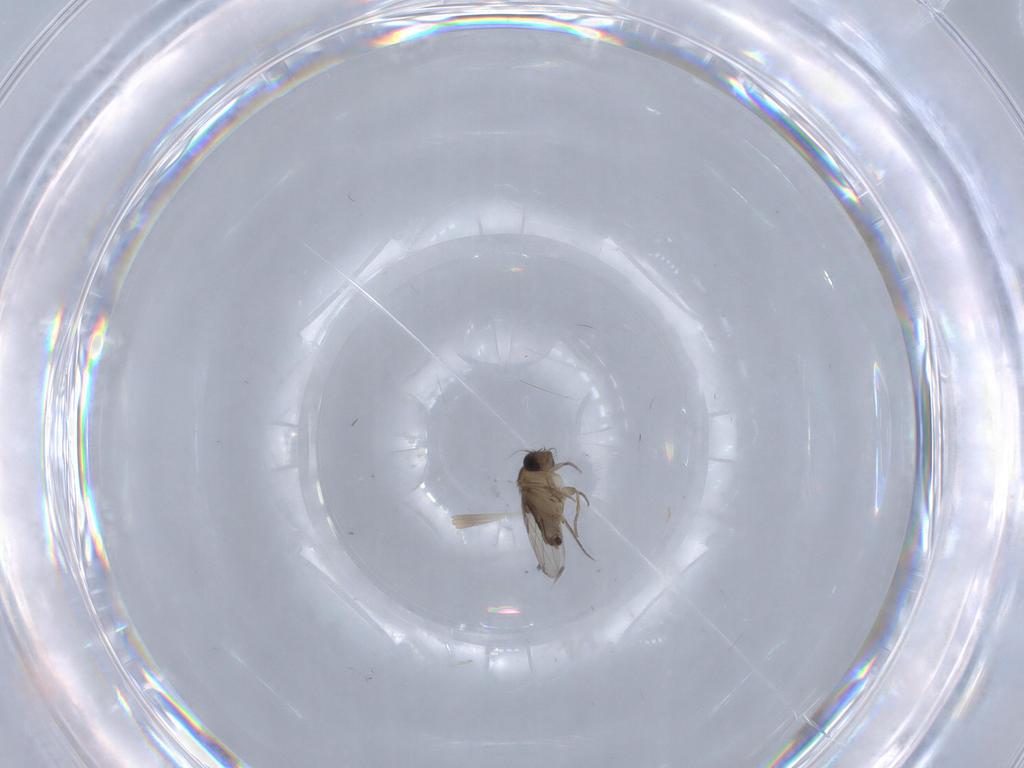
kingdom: Animalia
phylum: Arthropoda
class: Insecta
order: Diptera
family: Phoridae
